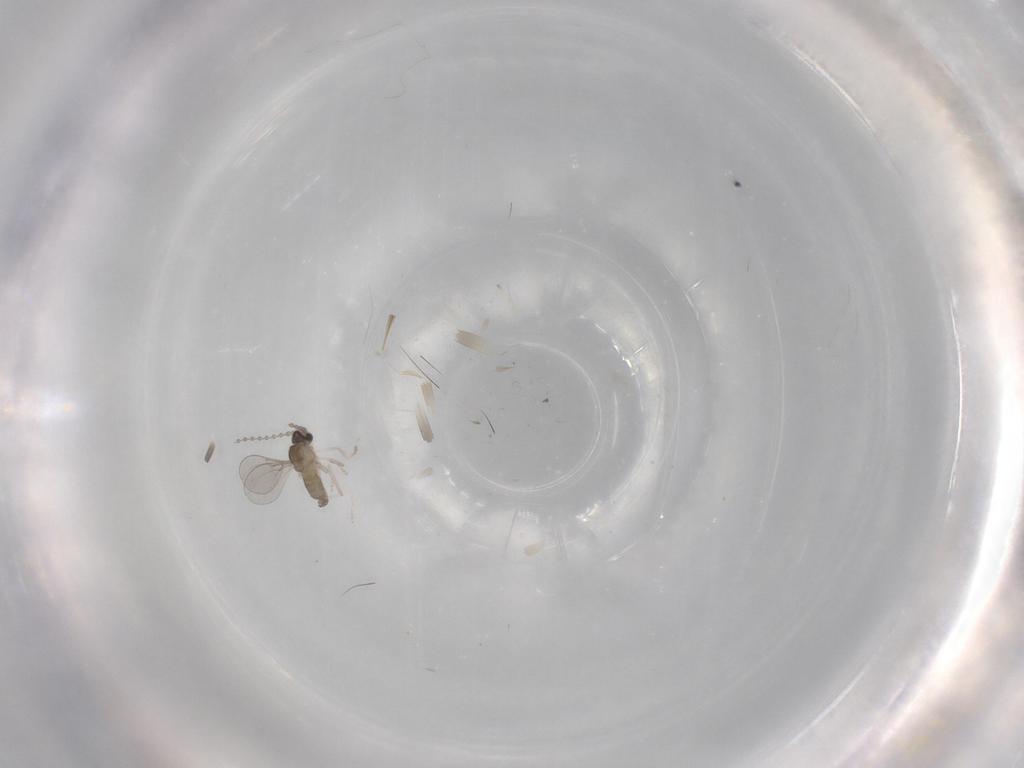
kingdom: Animalia
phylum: Arthropoda
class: Insecta
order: Diptera
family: Cecidomyiidae
